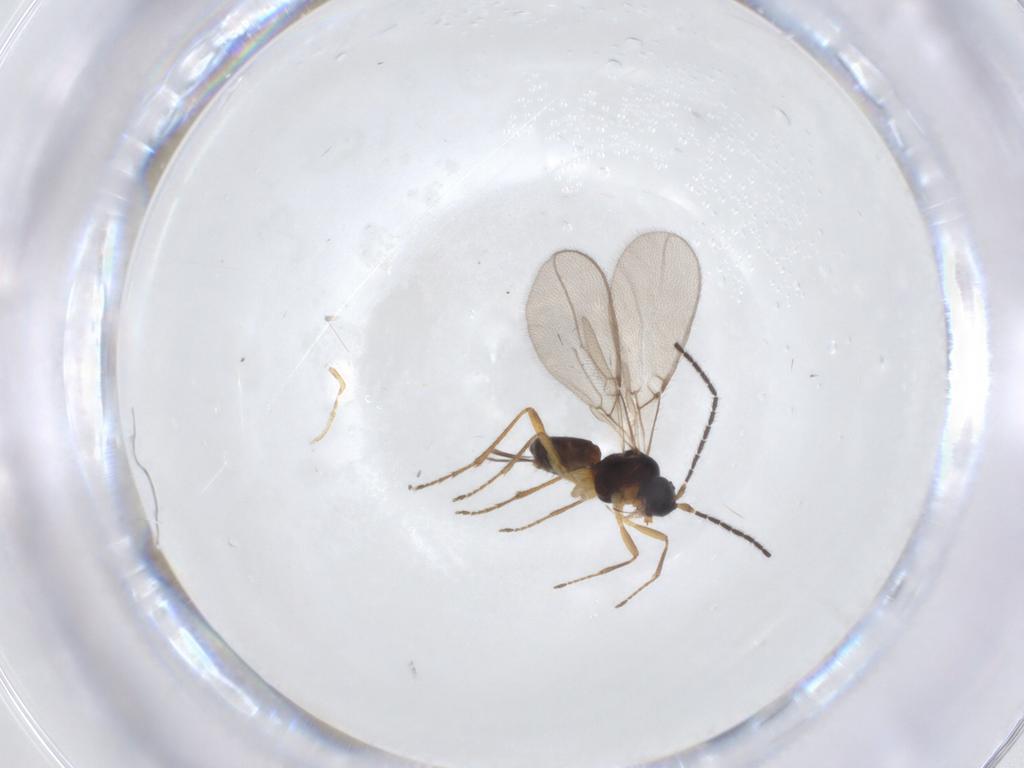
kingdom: Animalia
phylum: Arthropoda
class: Insecta
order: Hymenoptera
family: Braconidae
